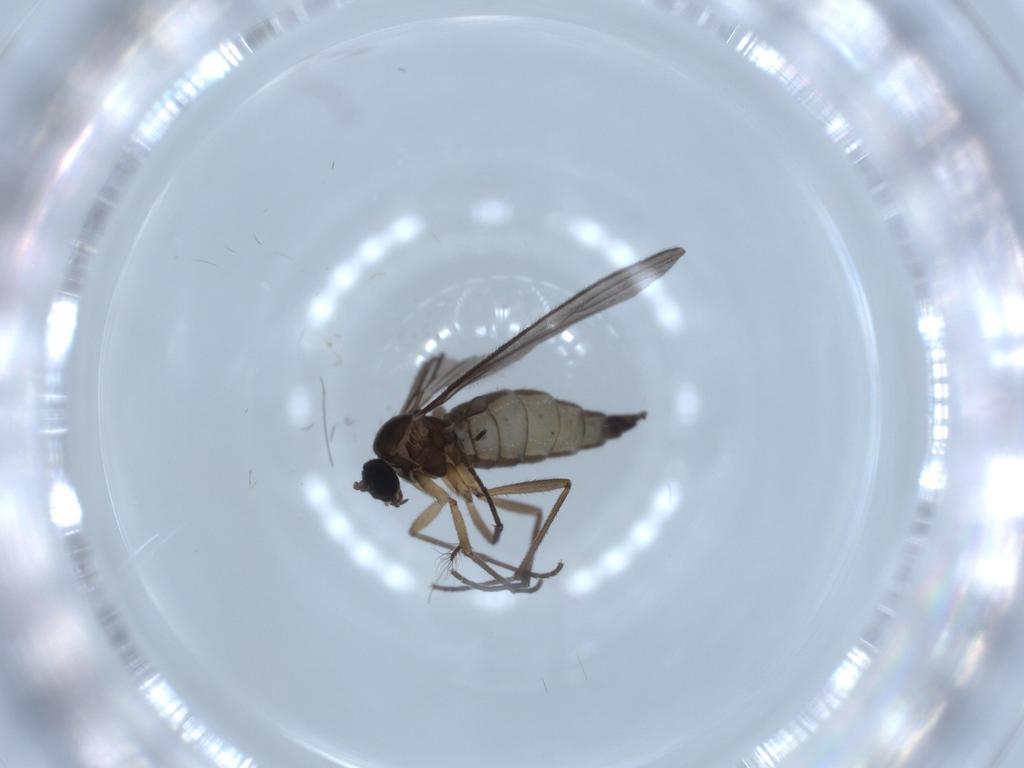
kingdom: Animalia
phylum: Arthropoda
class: Insecta
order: Diptera
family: Sciaridae
